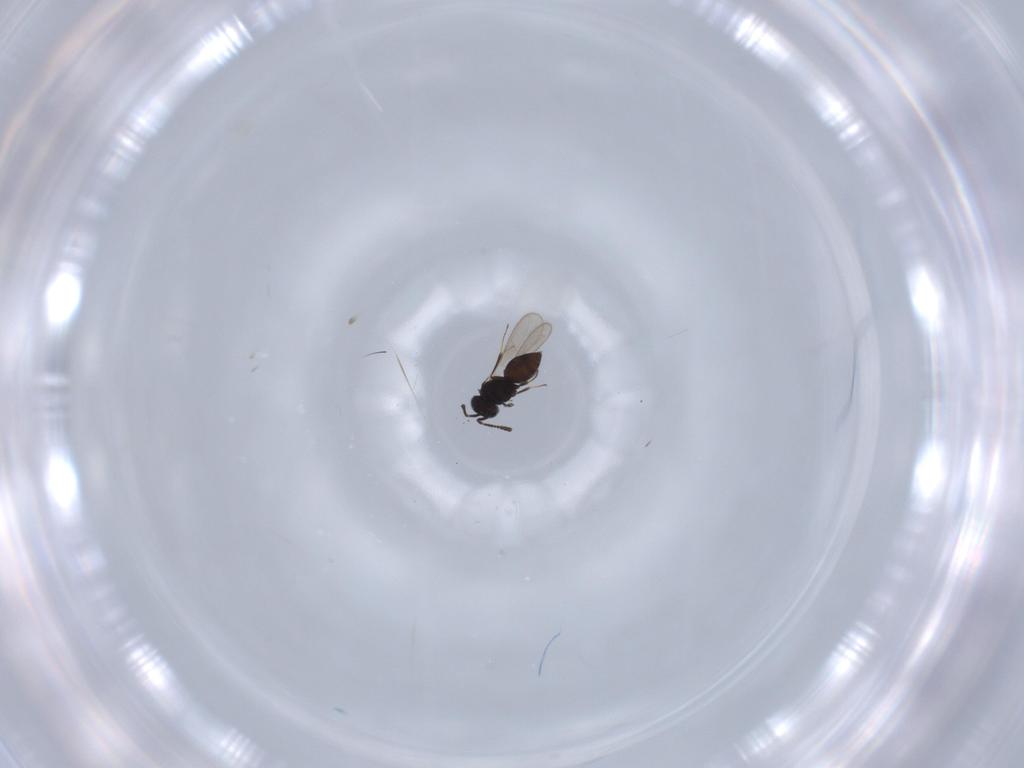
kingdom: Animalia
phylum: Arthropoda
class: Insecta
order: Hymenoptera
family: Scelionidae
